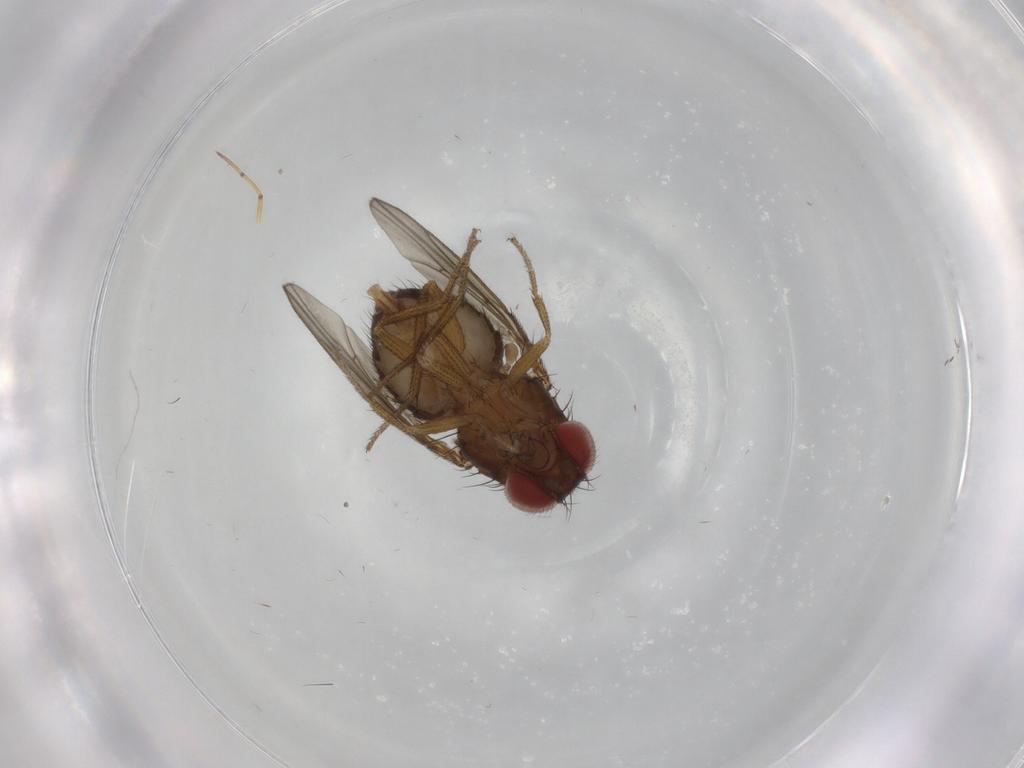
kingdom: Animalia
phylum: Arthropoda
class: Insecta
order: Diptera
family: Drosophilidae
